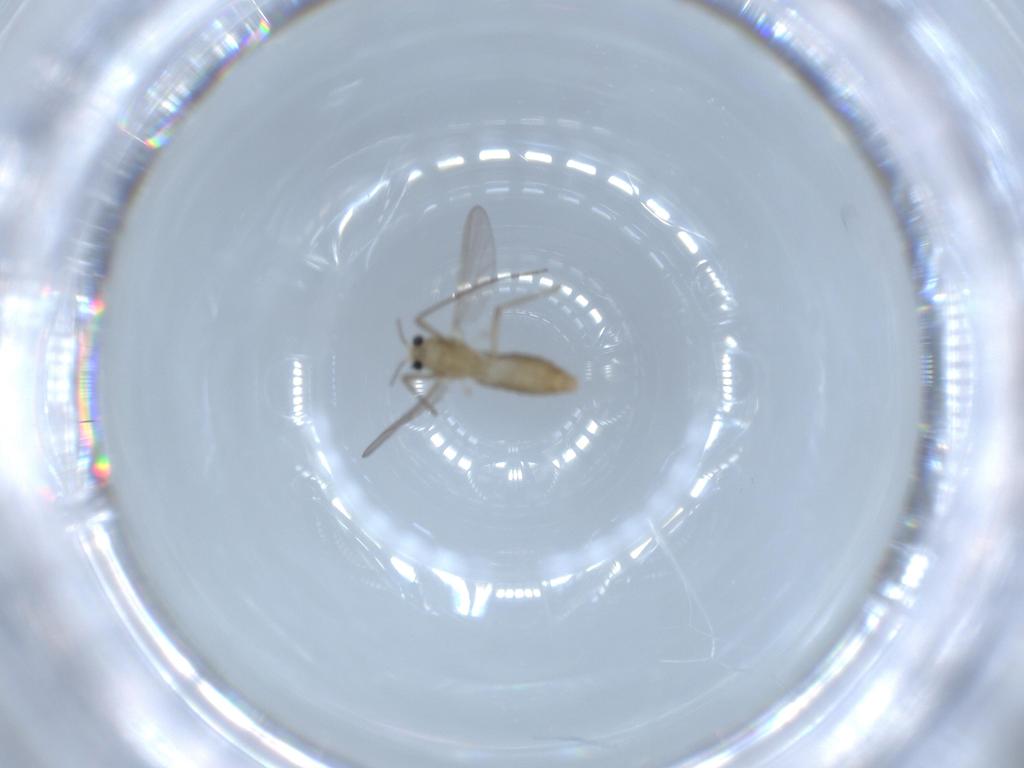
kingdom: Animalia
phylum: Arthropoda
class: Insecta
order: Diptera
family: Chironomidae
